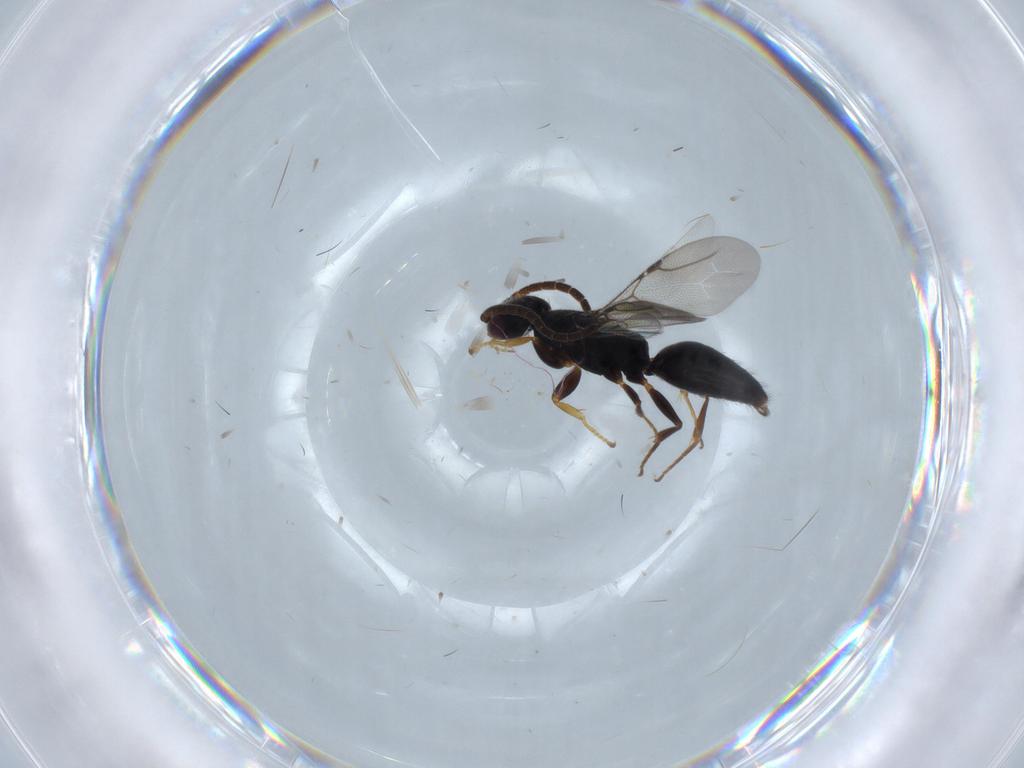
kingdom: Animalia
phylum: Arthropoda
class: Insecta
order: Hymenoptera
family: Bethylidae
